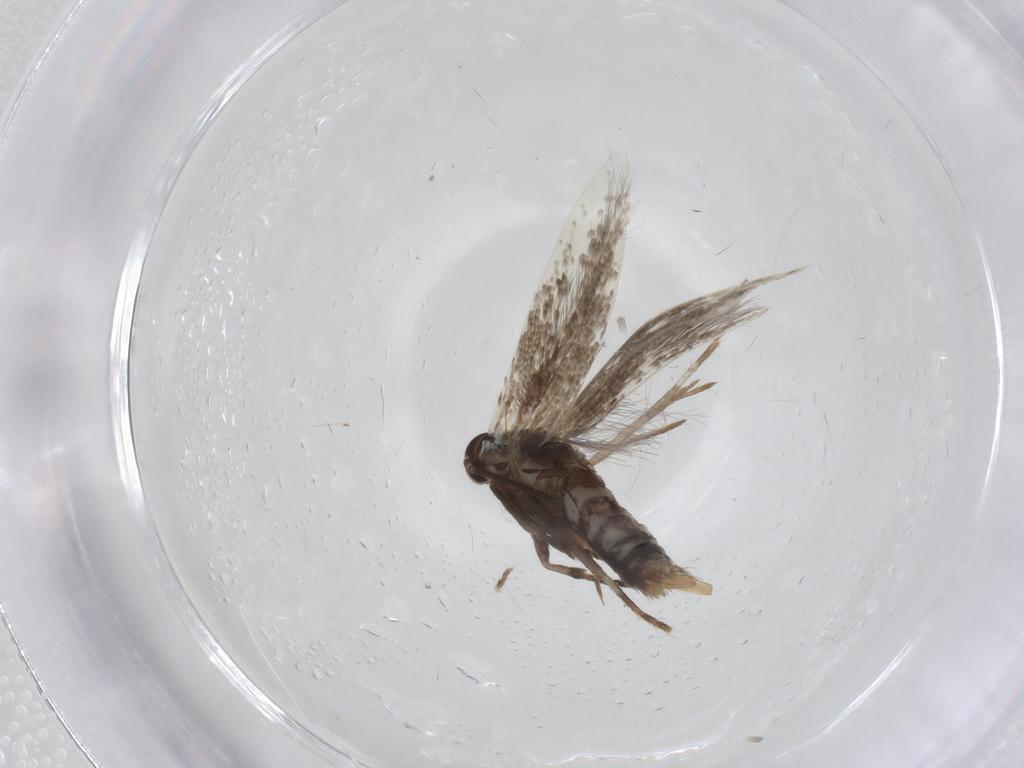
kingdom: Animalia
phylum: Arthropoda
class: Insecta
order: Lepidoptera
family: Elachistidae
